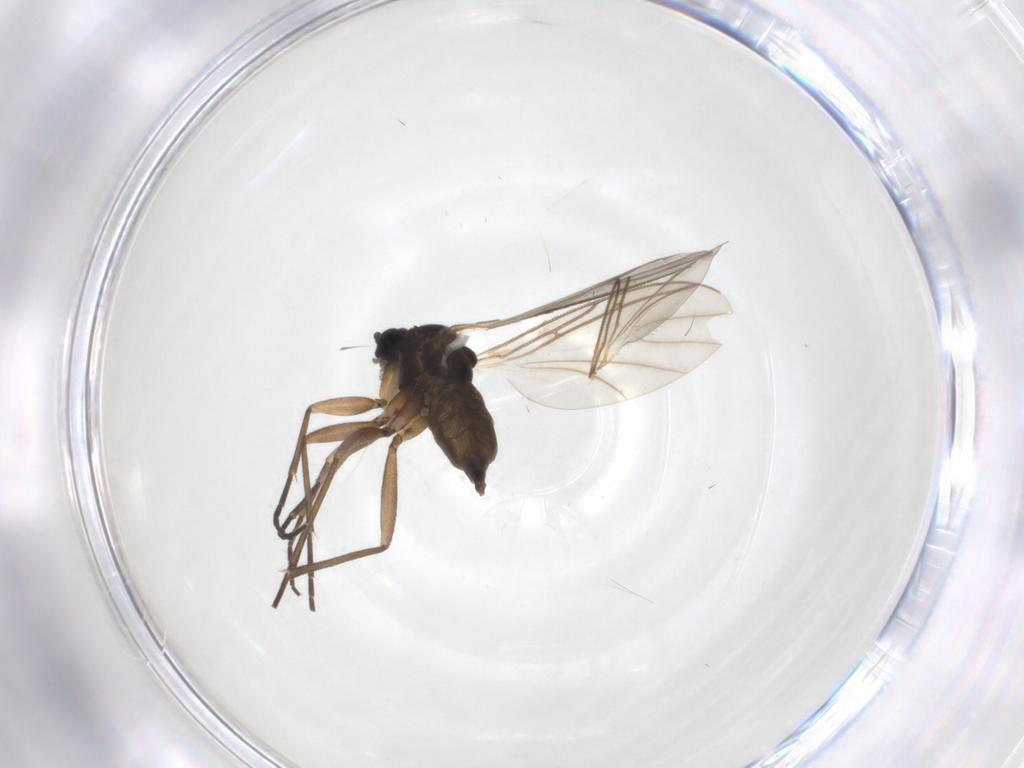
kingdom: Animalia
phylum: Arthropoda
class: Insecta
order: Diptera
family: Sciaridae
